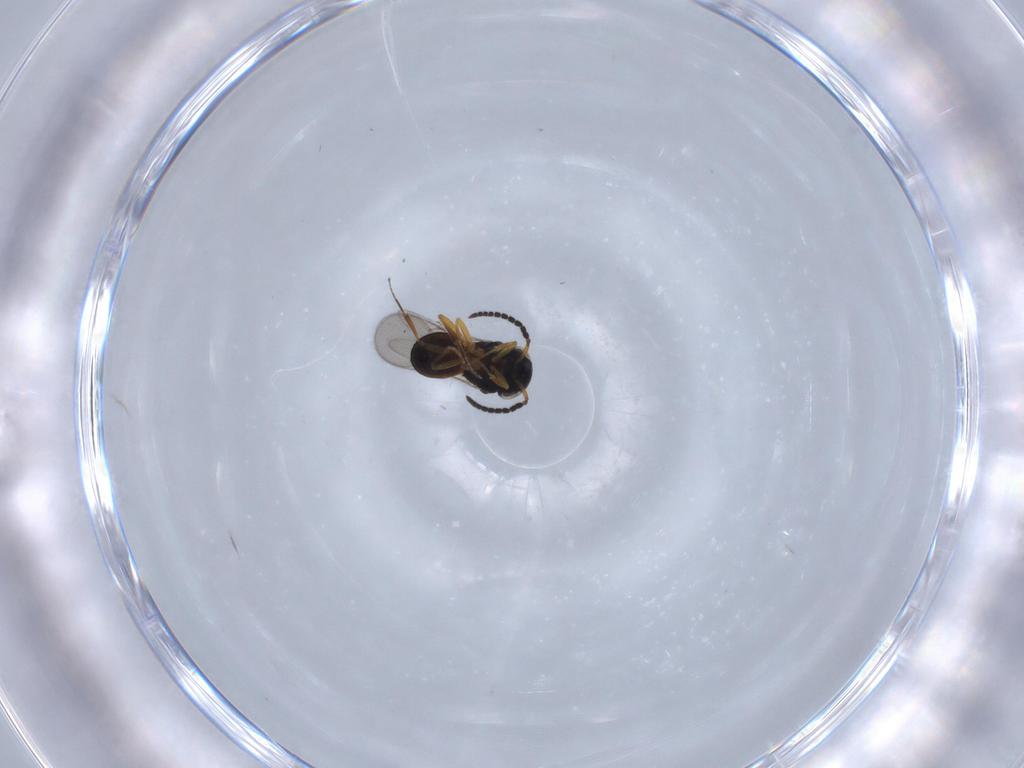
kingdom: Animalia
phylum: Arthropoda
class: Insecta
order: Hymenoptera
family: Scelionidae
